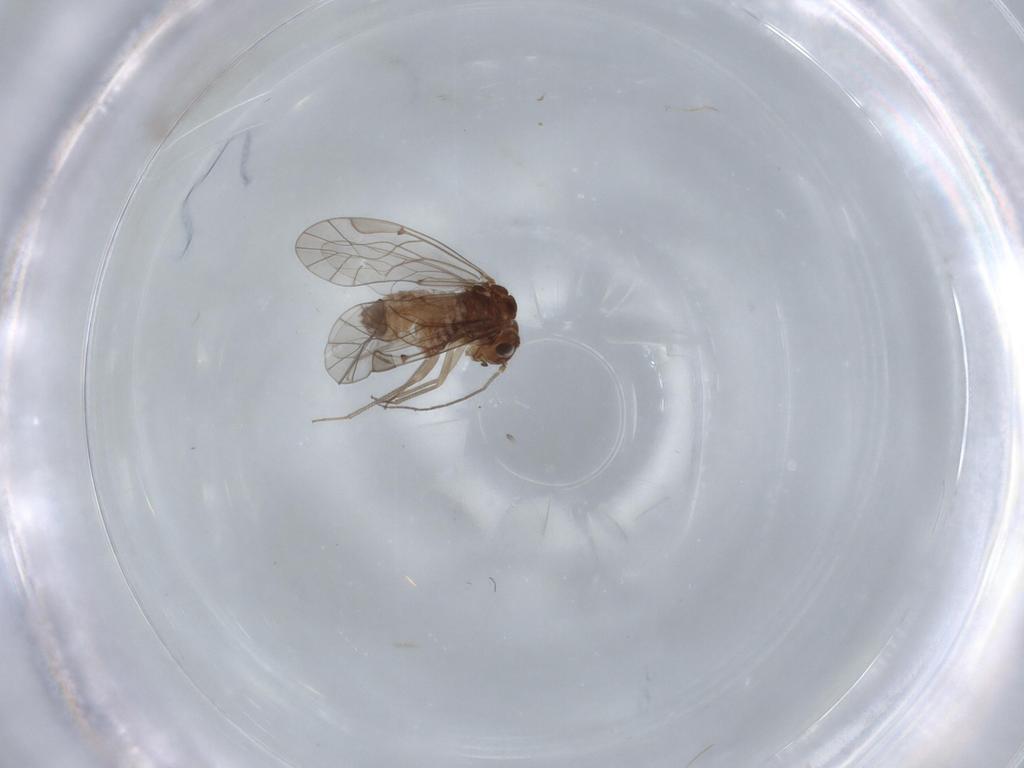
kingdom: Animalia
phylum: Arthropoda
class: Insecta
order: Psocodea
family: Lachesillidae
